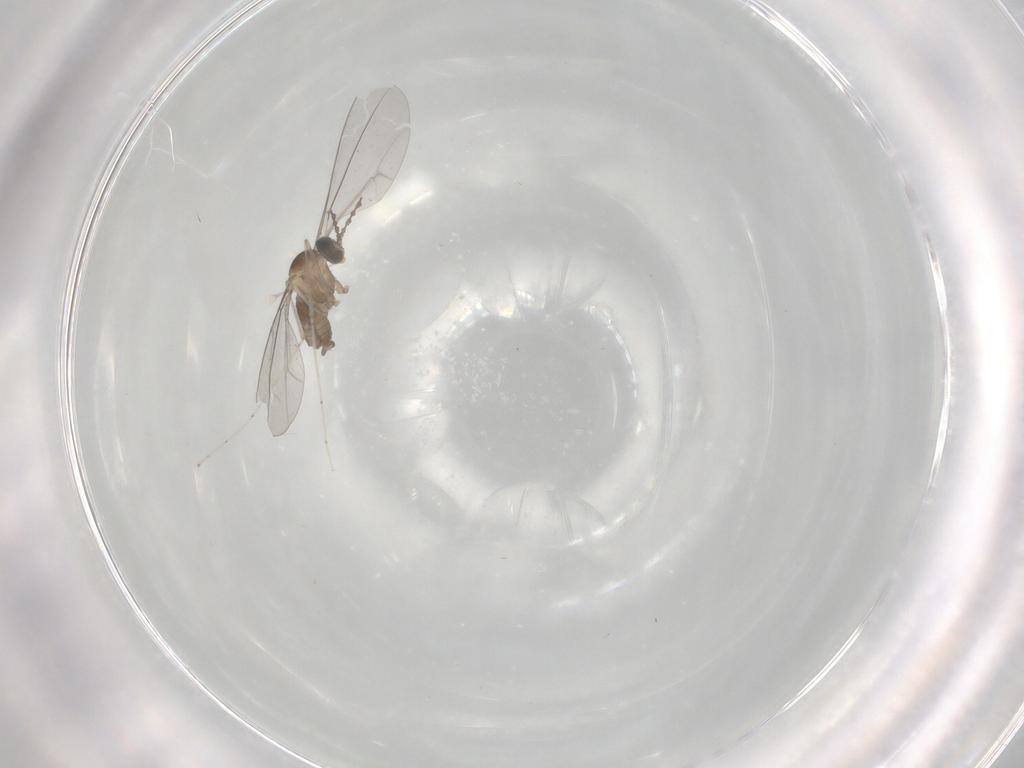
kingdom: Animalia
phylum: Arthropoda
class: Insecta
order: Diptera
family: Cecidomyiidae
